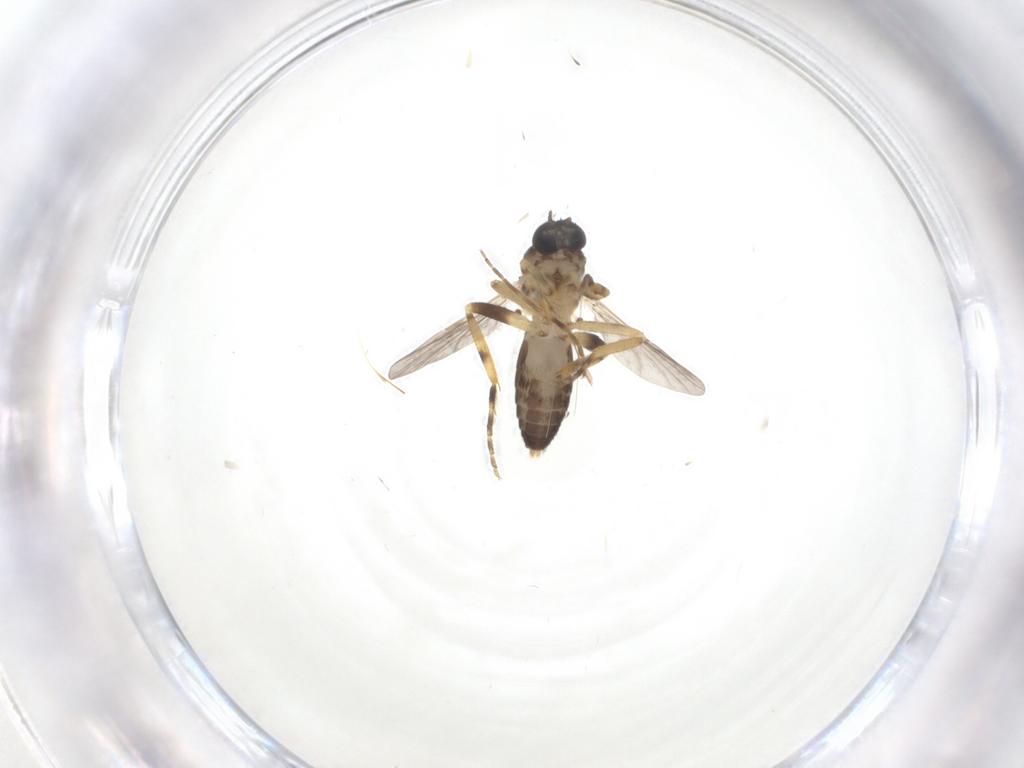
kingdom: Animalia
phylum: Arthropoda
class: Insecta
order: Diptera
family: Ceratopogonidae
